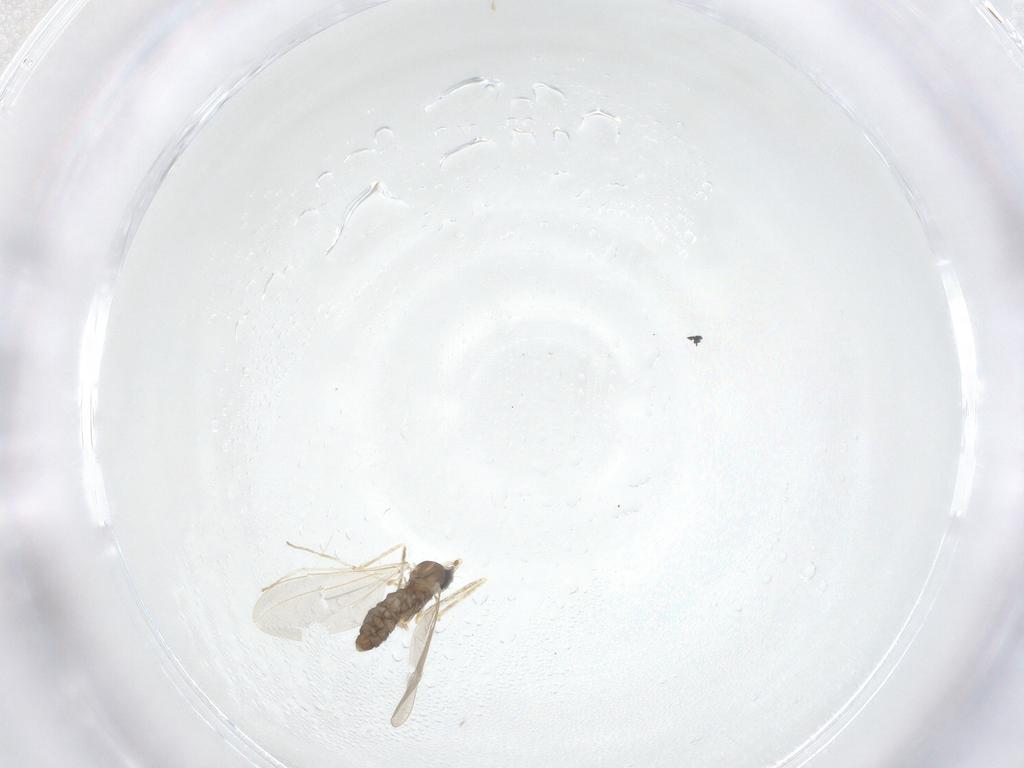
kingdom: Animalia
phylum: Arthropoda
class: Insecta
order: Diptera
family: Cecidomyiidae
